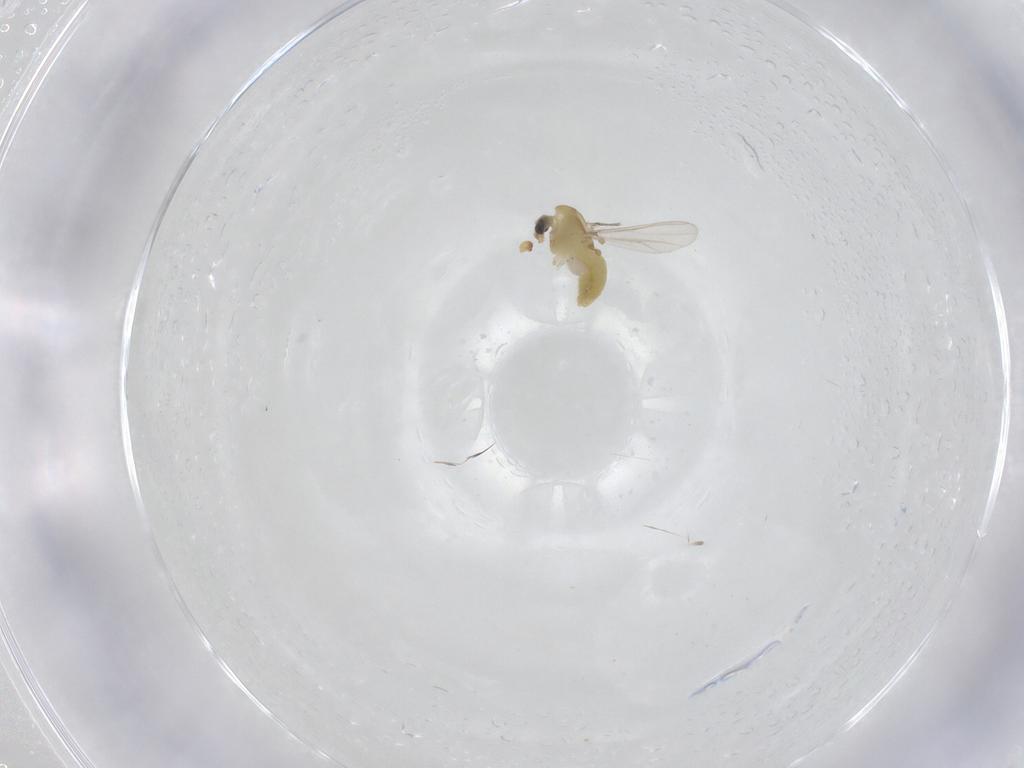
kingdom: Animalia
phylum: Arthropoda
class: Insecta
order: Diptera
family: Chironomidae
